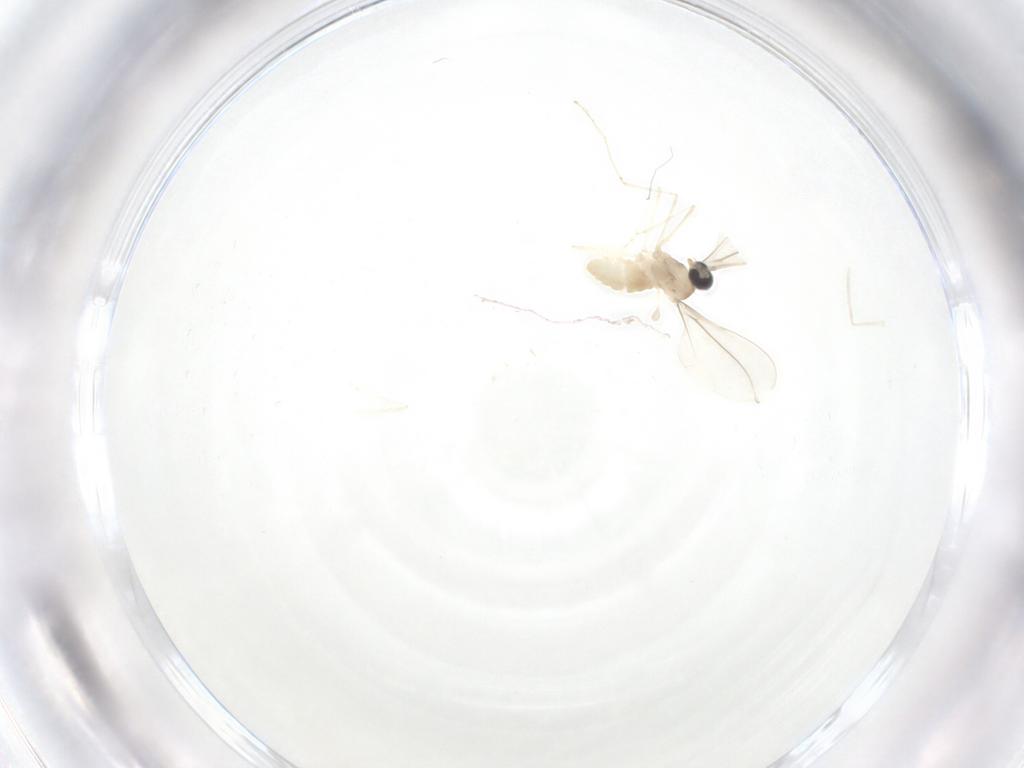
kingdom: Animalia
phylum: Arthropoda
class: Insecta
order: Diptera
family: Cecidomyiidae
